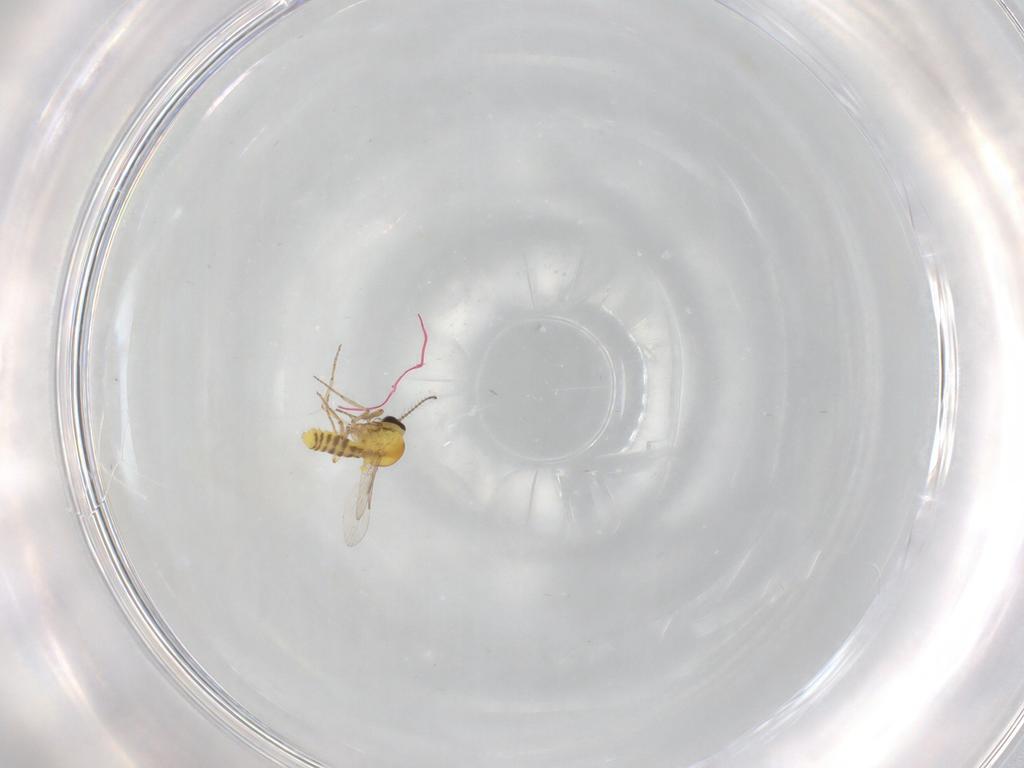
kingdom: Animalia
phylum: Arthropoda
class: Insecta
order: Diptera
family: Ceratopogonidae
